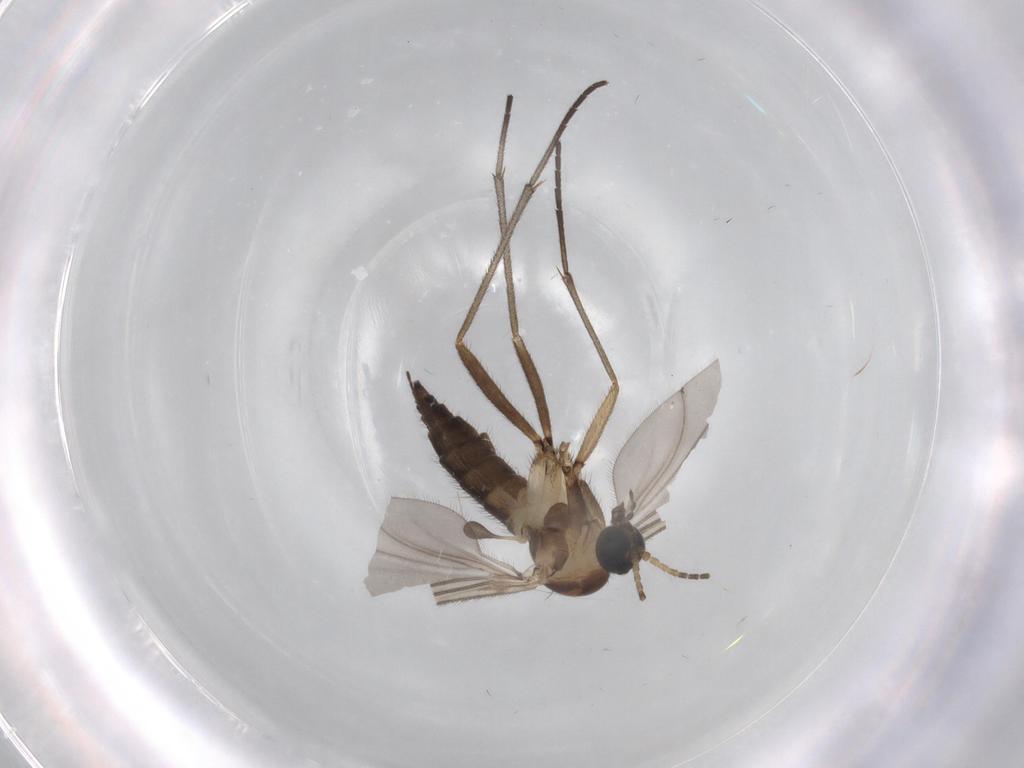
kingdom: Animalia
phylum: Arthropoda
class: Insecta
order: Diptera
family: Sciaridae
